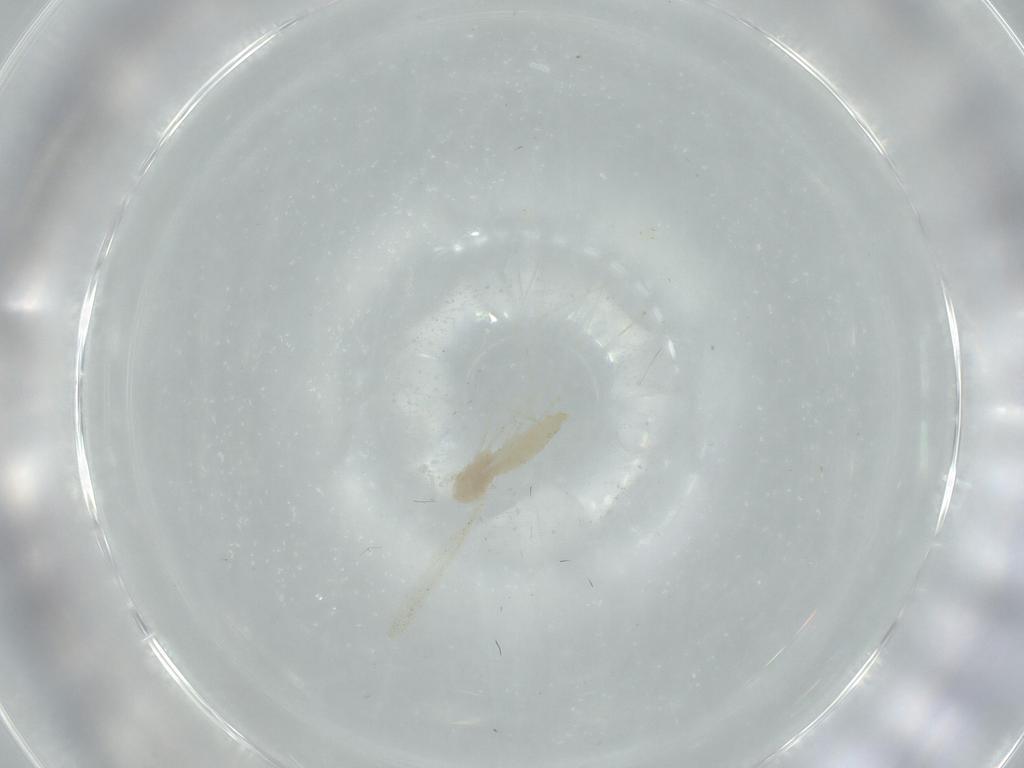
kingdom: Animalia
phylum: Arthropoda
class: Insecta
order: Diptera
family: Cecidomyiidae
